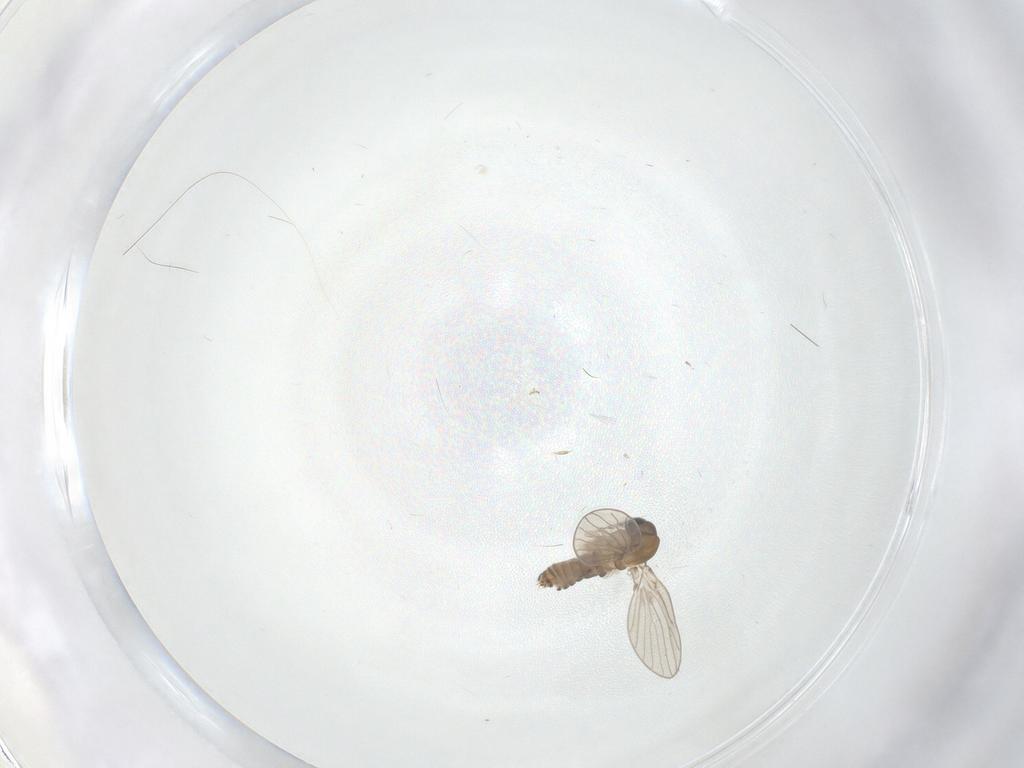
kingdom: Animalia
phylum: Arthropoda
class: Insecta
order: Diptera
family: Psychodidae
